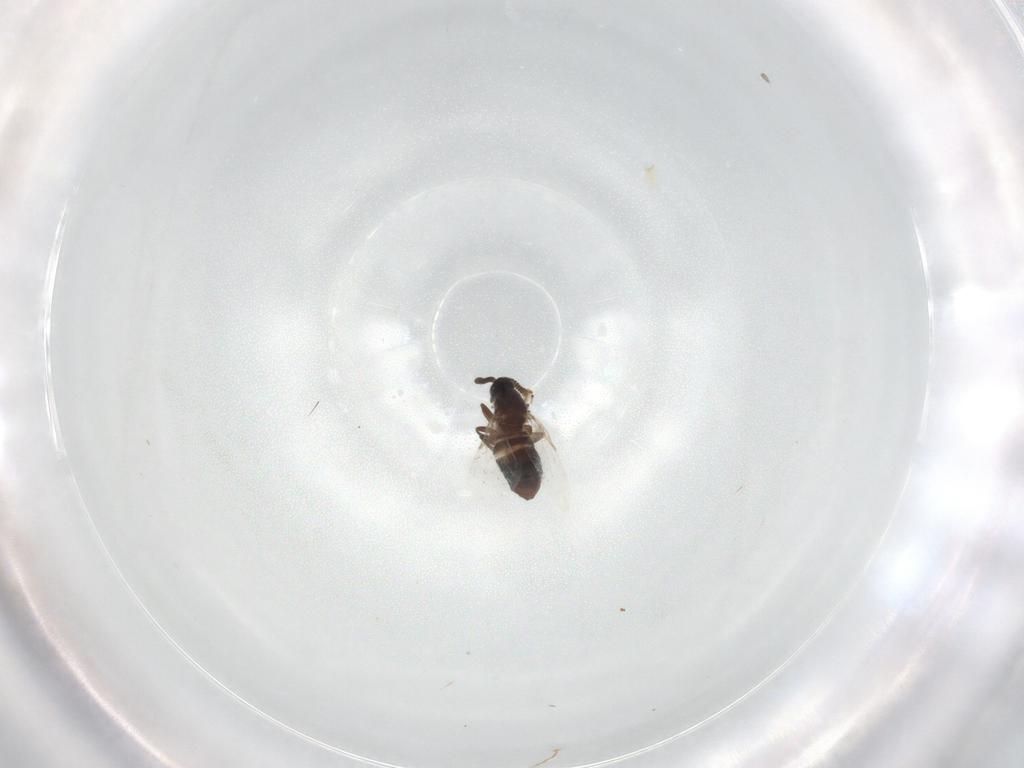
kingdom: Animalia
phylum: Arthropoda
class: Insecta
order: Diptera
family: Scatopsidae
